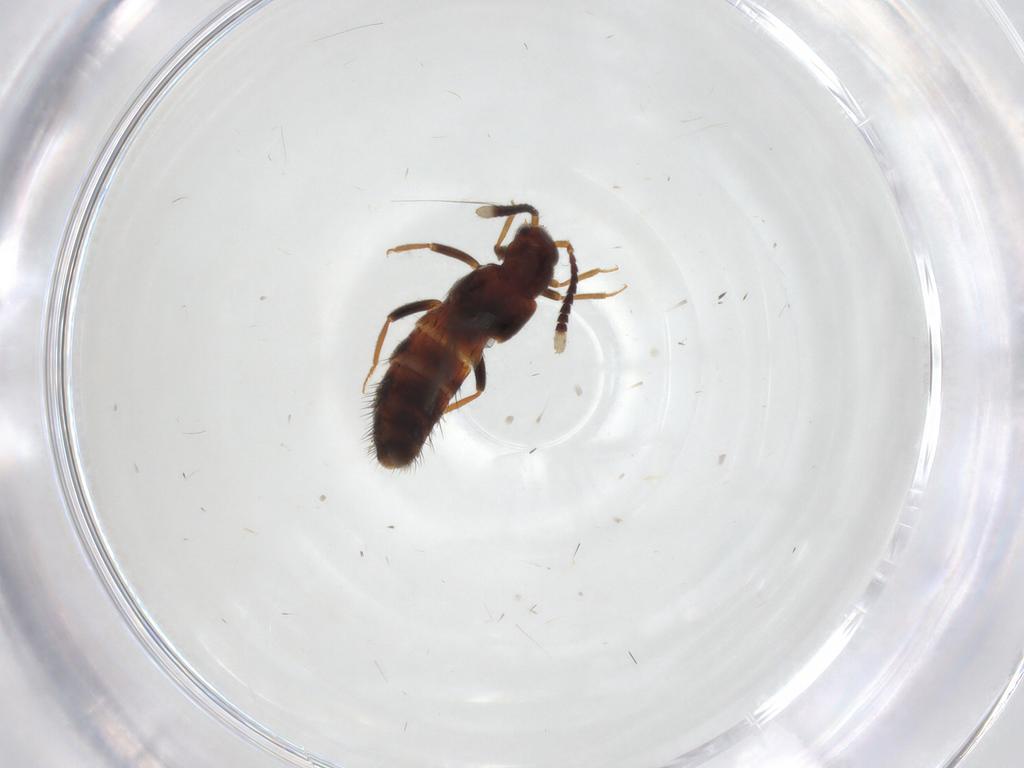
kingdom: Animalia
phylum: Arthropoda
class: Insecta
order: Coleoptera
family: Staphylinidae
